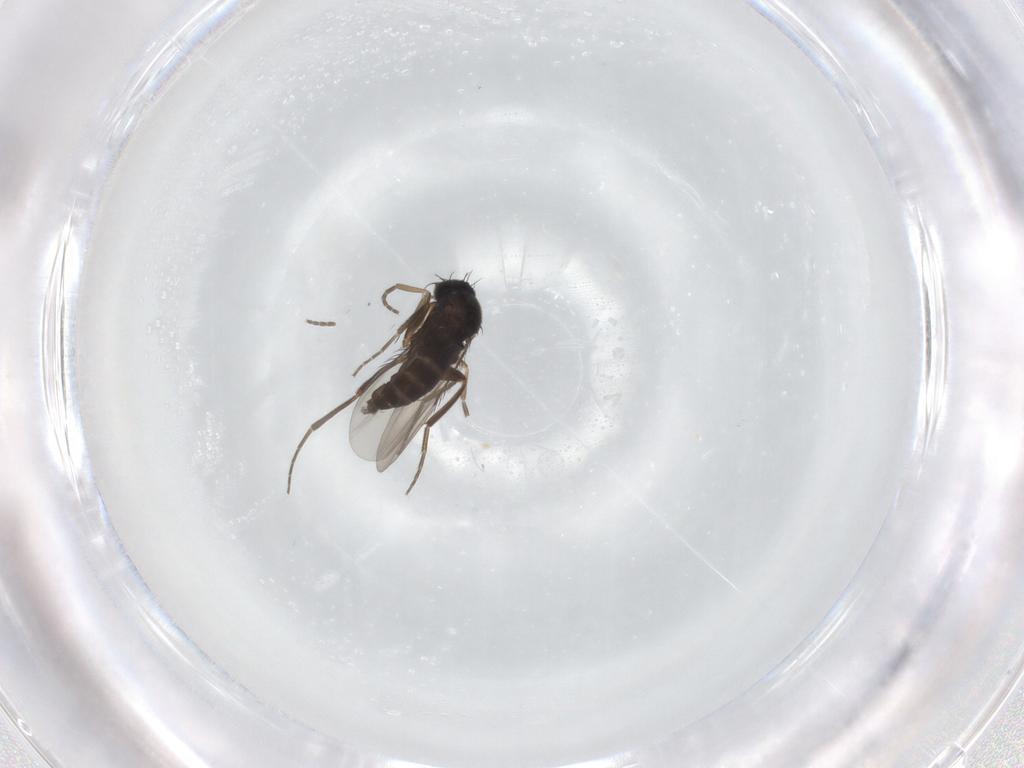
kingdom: Animalia
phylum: Arthropoda
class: Insecta
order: Diptera
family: Phoridae
